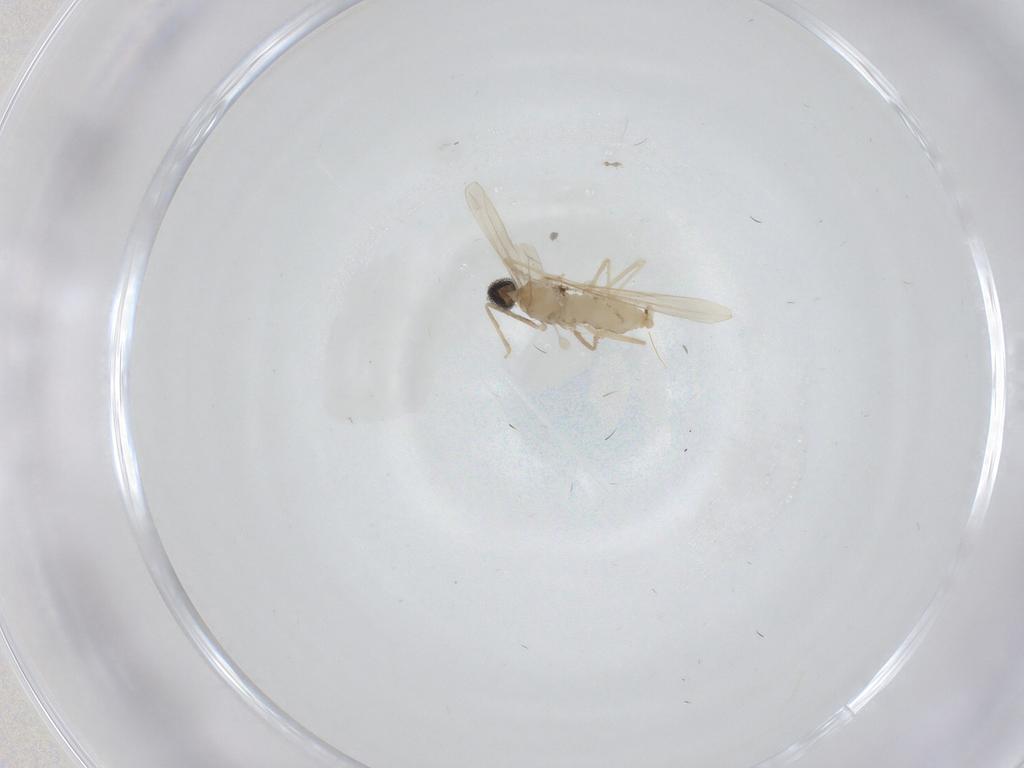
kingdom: Animalia
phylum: Arthropoda
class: Insecta
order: Diptera
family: Cecidomyiidae
